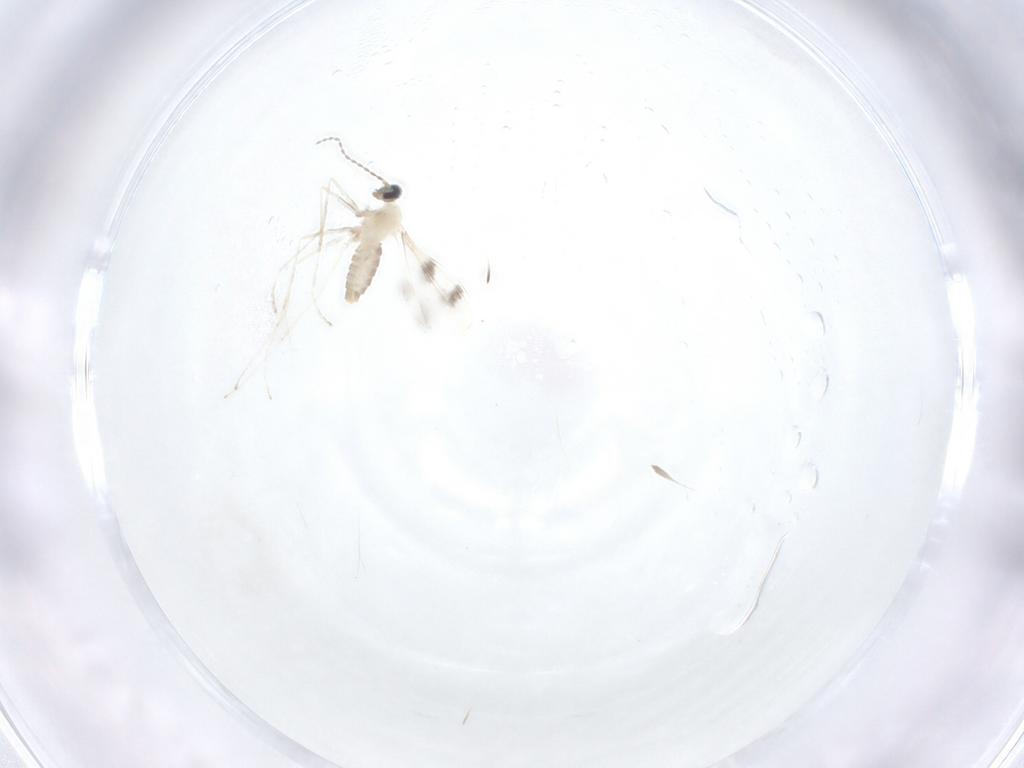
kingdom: Animalia
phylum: Arthropoda
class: Insecta
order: Diptera
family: Cecidomyiidae
